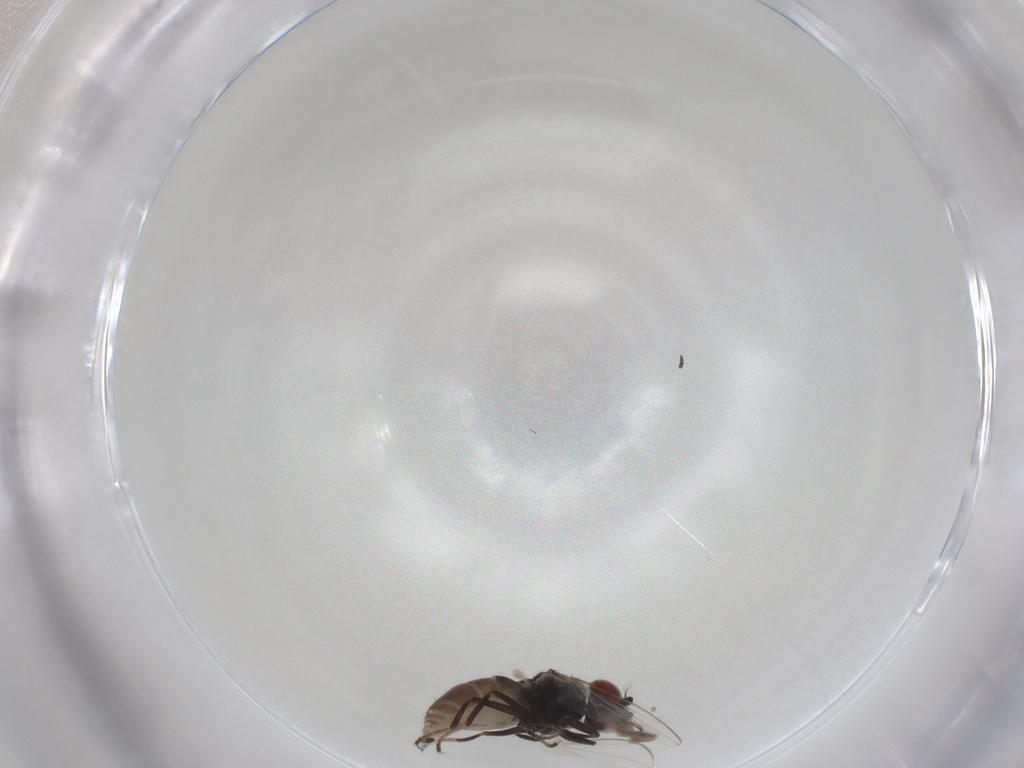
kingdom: Animalia
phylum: Arthropoda
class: Insecta
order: Diptera
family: Ephydridae
